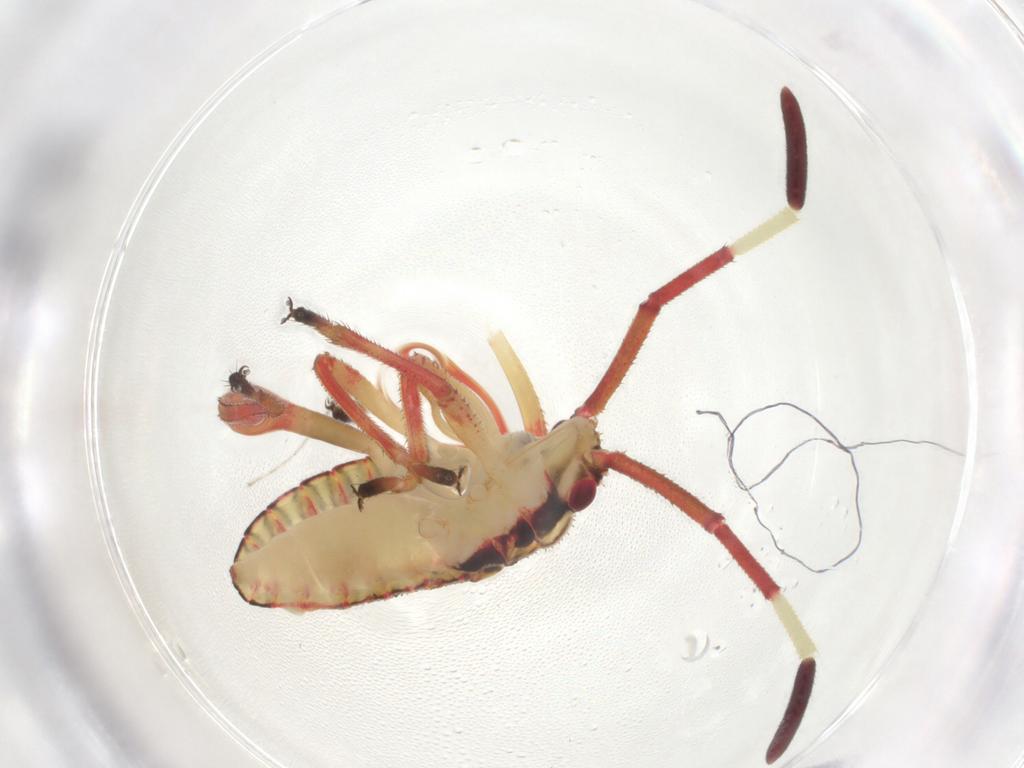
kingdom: Animalia
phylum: Arthropoda
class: Insecta
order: Hemiptera
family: Coreidae
